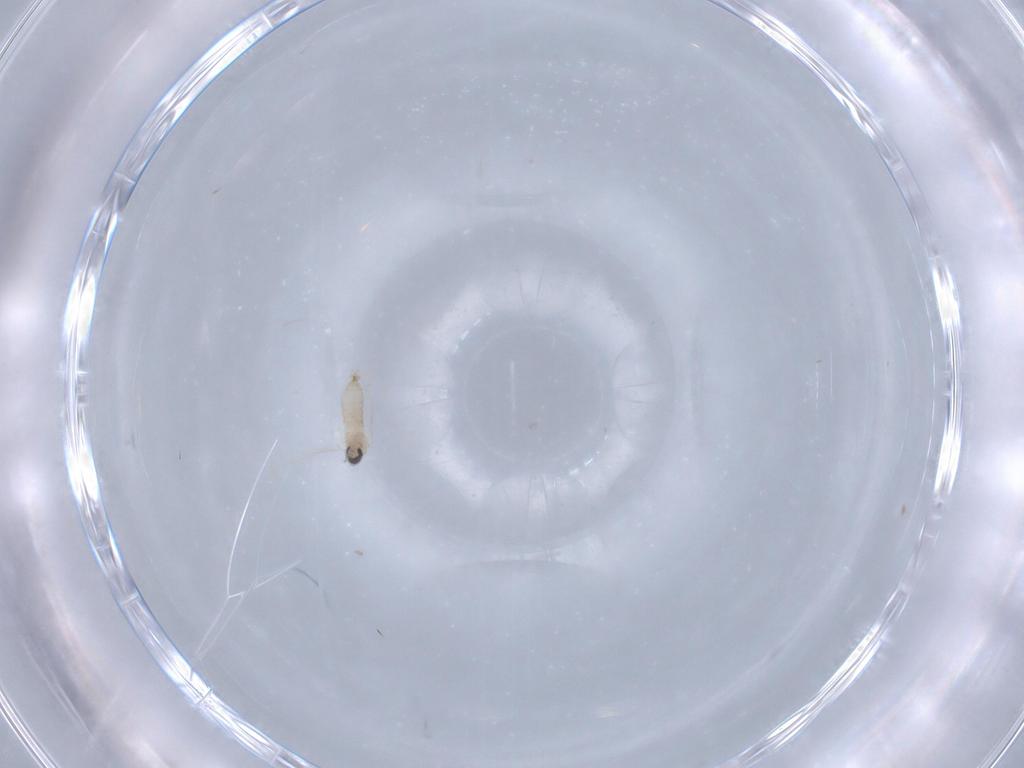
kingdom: Animalia
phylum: Arthropoda
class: Insecta
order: Diptera
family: Cecidomyiidae
